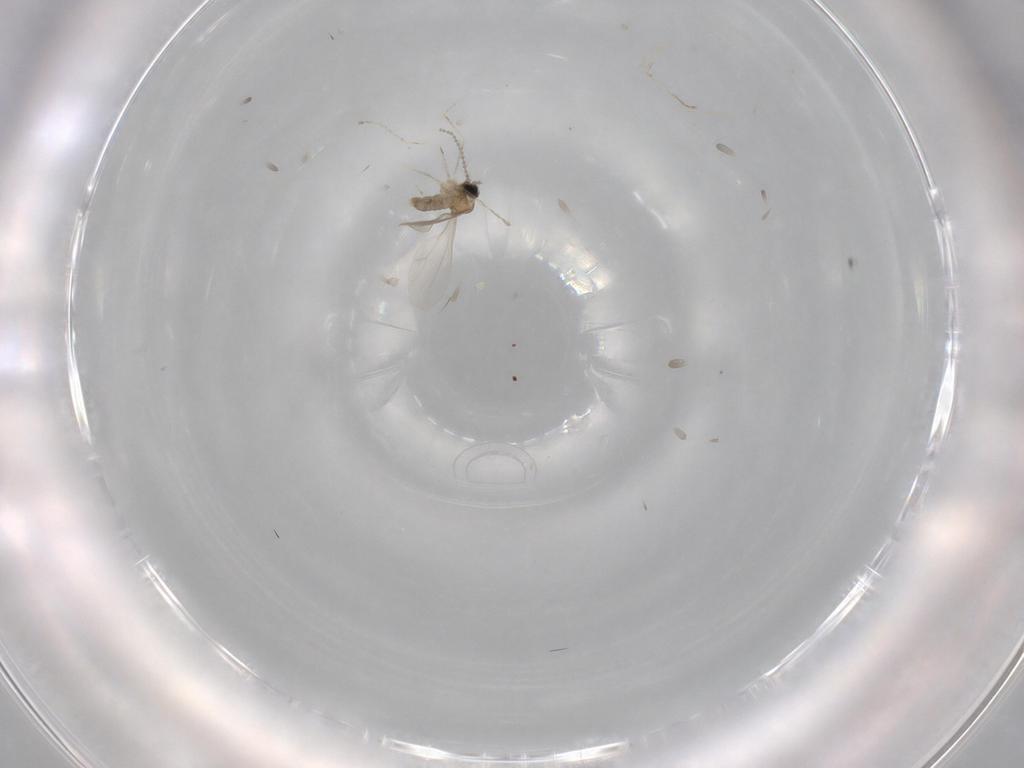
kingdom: Animalia
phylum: Arthropoda
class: Insecta
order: Diptera
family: Cecidomyiidae
